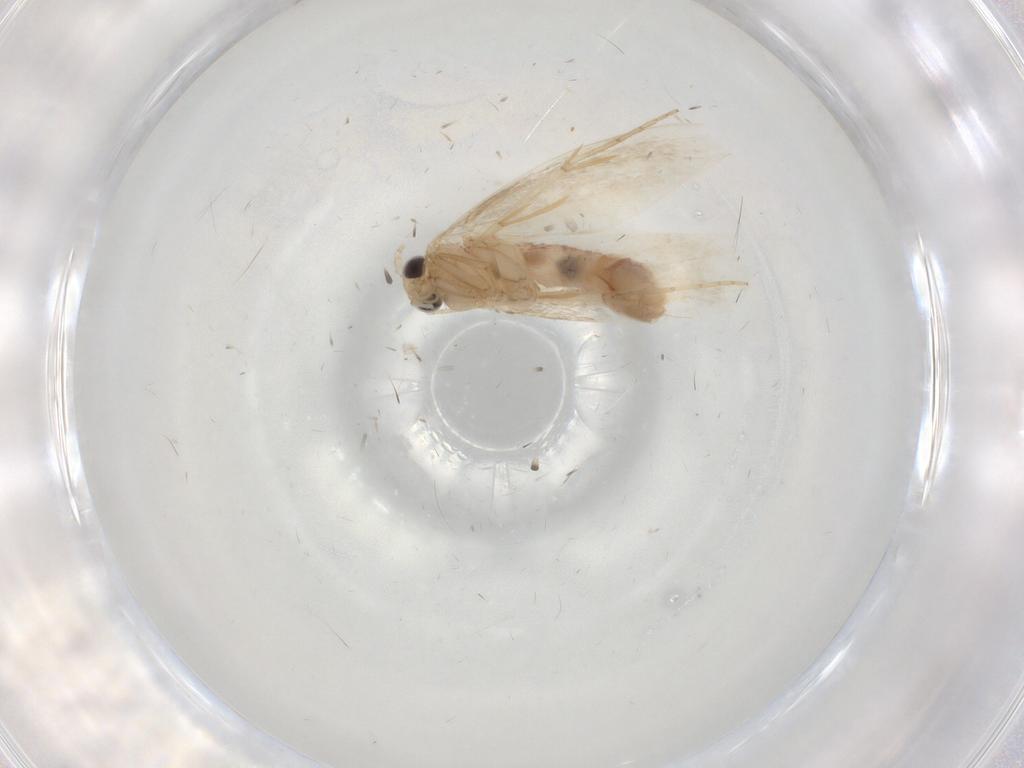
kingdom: Animalia
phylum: Arthropoda
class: Insecta
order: Lepidoptera
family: Dryadaulidae
